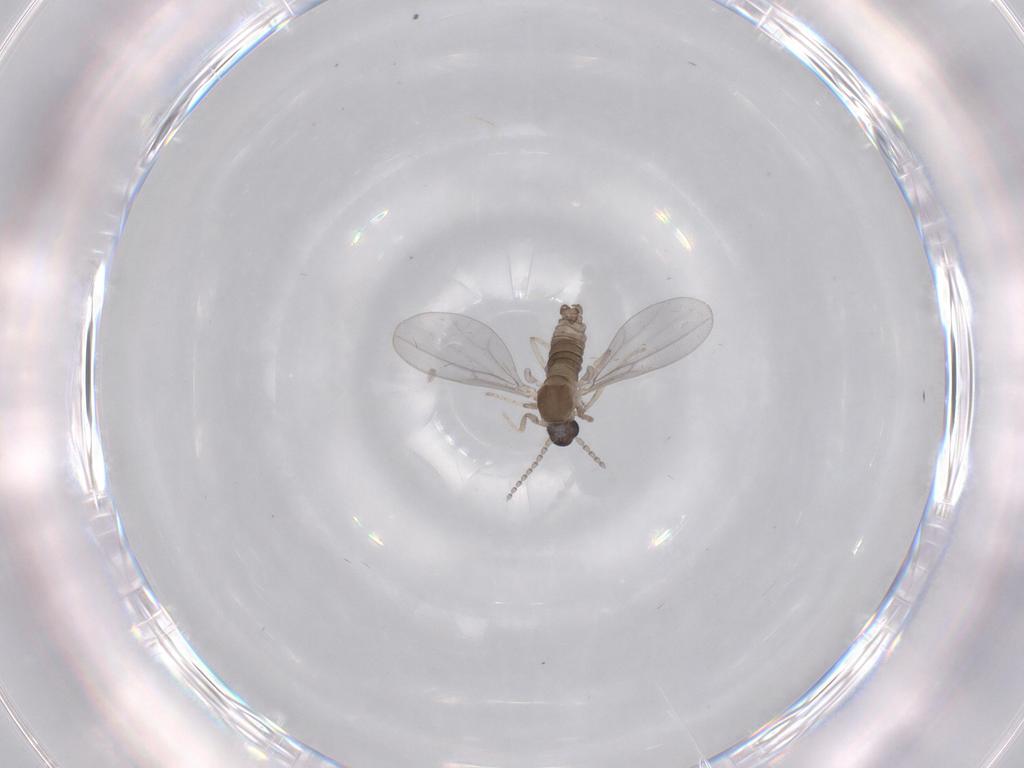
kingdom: Animalia
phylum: Arthropoda
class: Insecta
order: Diptera
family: Cecidomyiidae
